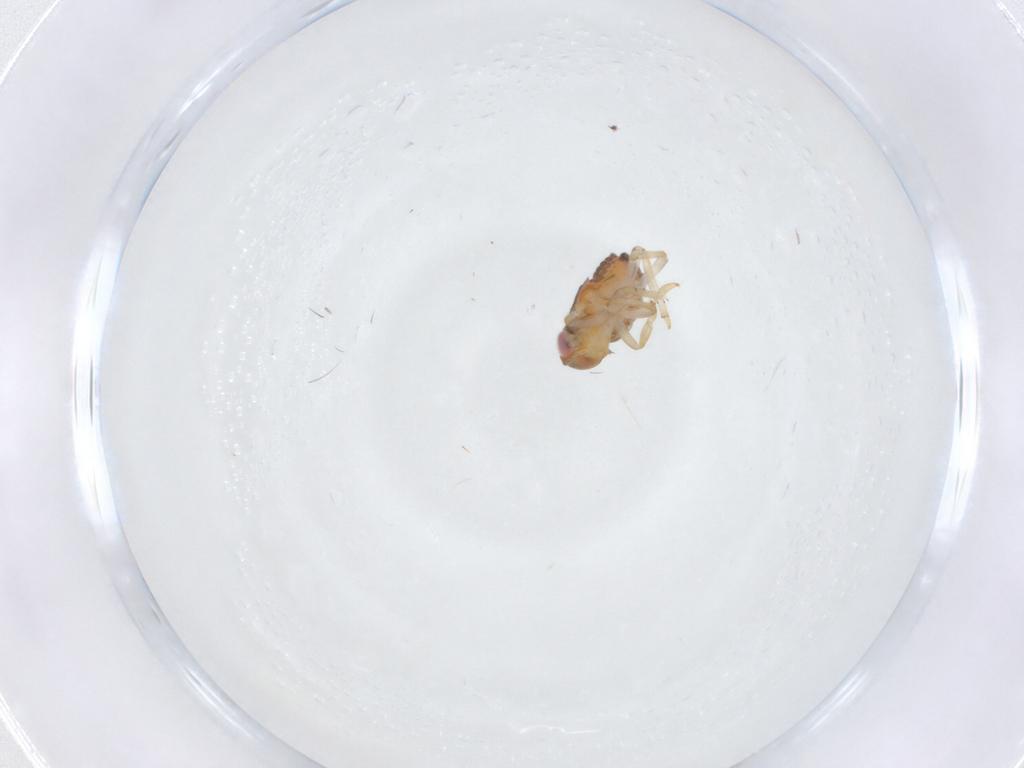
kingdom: Animalia
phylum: Arthropoda
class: Insecta
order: Hemiptera
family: Issidae
